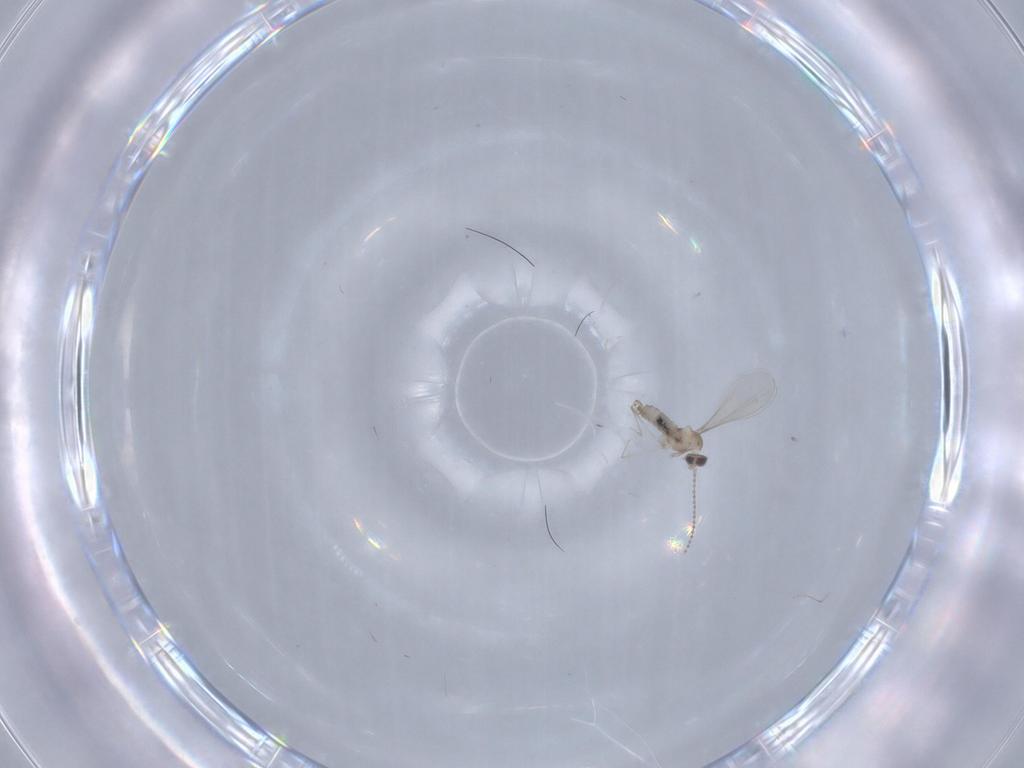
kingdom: Animalia
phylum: Arthropoda
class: Insecta
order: Diptera
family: Cecidomyiidae
